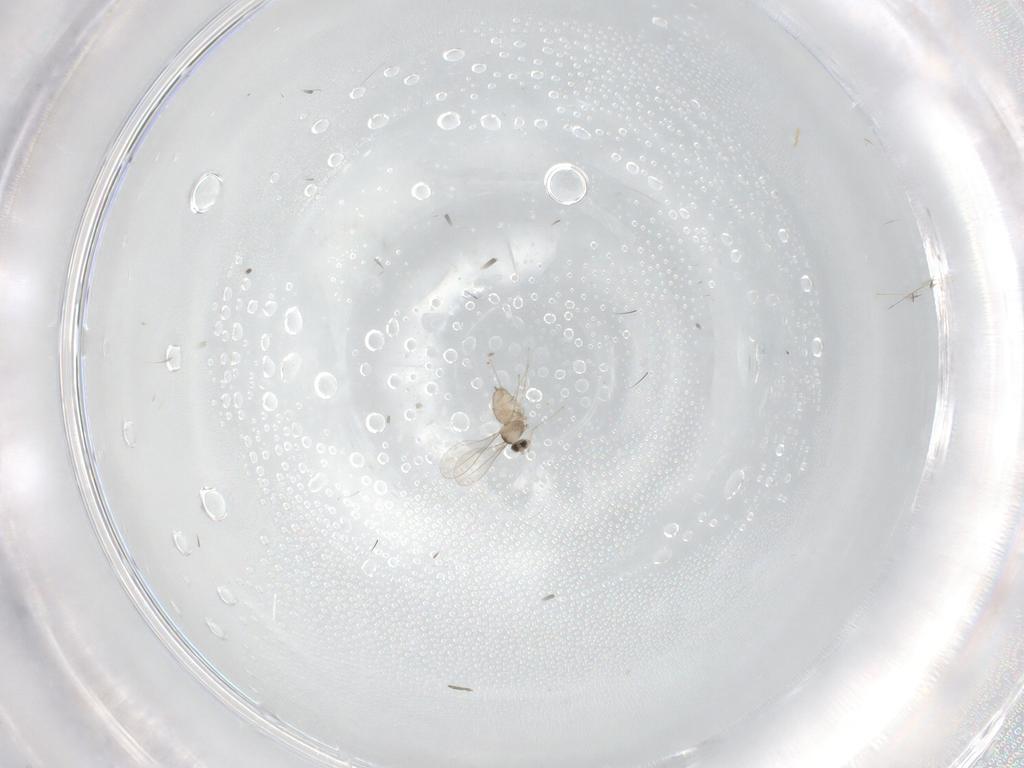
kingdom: Animalia
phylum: Arthropoda
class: Insecta
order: Diptera
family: Cecidomyiidae
